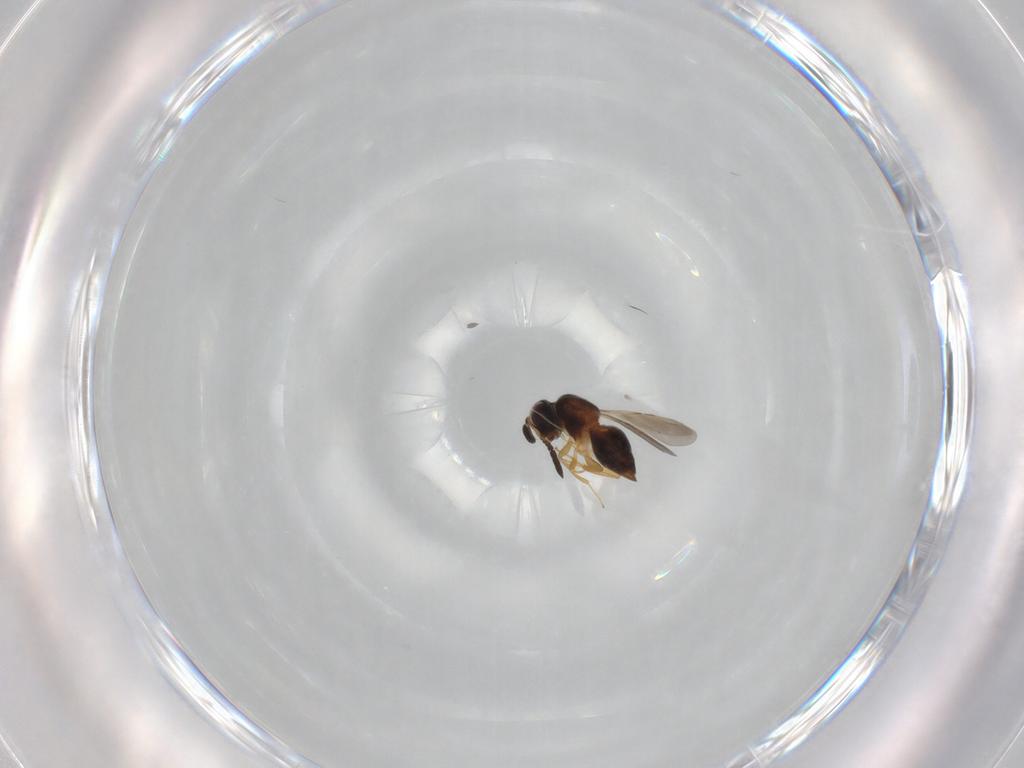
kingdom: Animalia
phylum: Arthropoda
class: Insecta
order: Hymenoptera
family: Ceraphronidae
